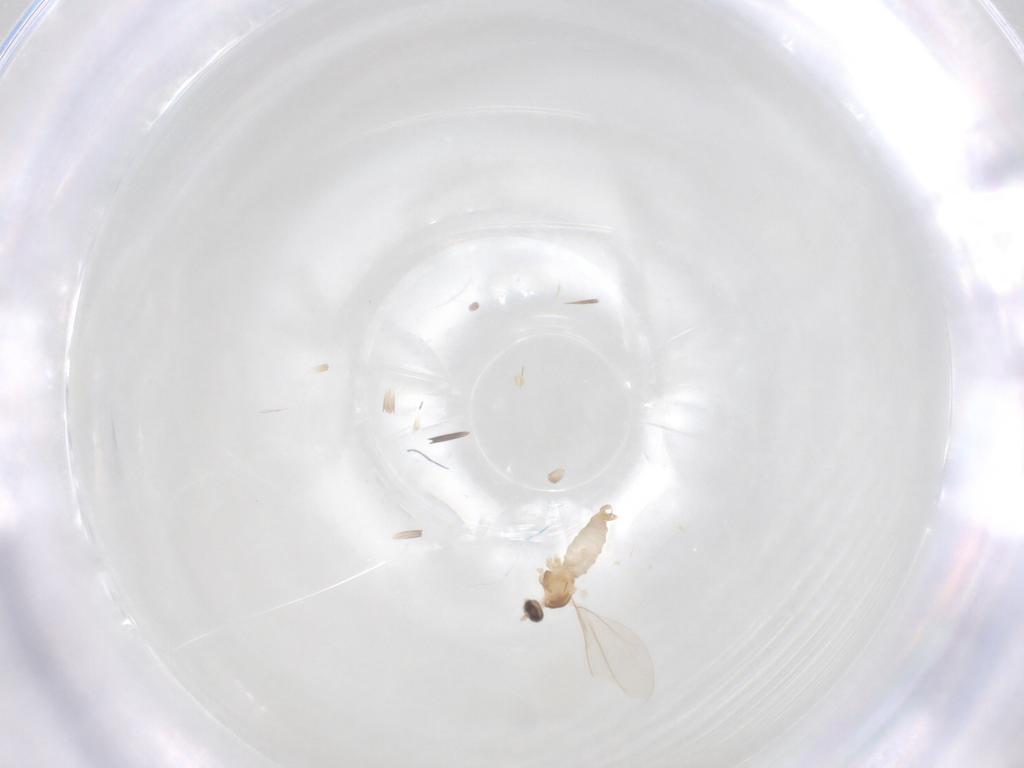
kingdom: Animalia
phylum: Arthropoda
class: Insecta
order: Diptera
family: Cecidomyiidae
